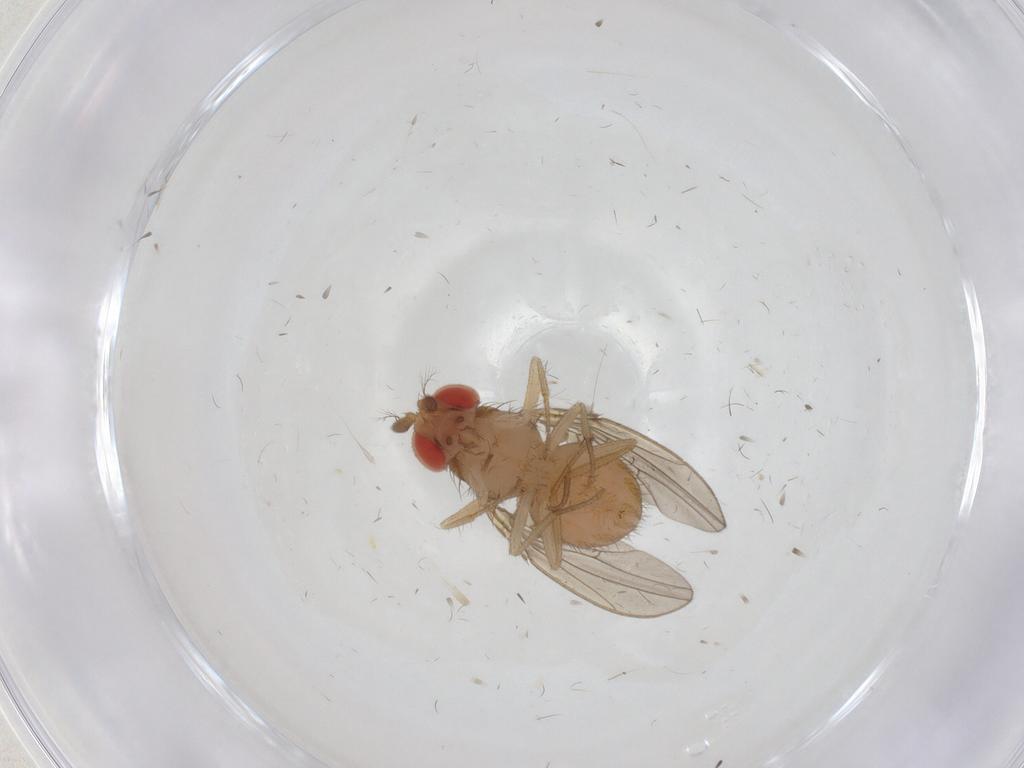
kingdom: Animalia
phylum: Arthropoda
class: Insecta
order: Diptera
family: Drosophilidae
